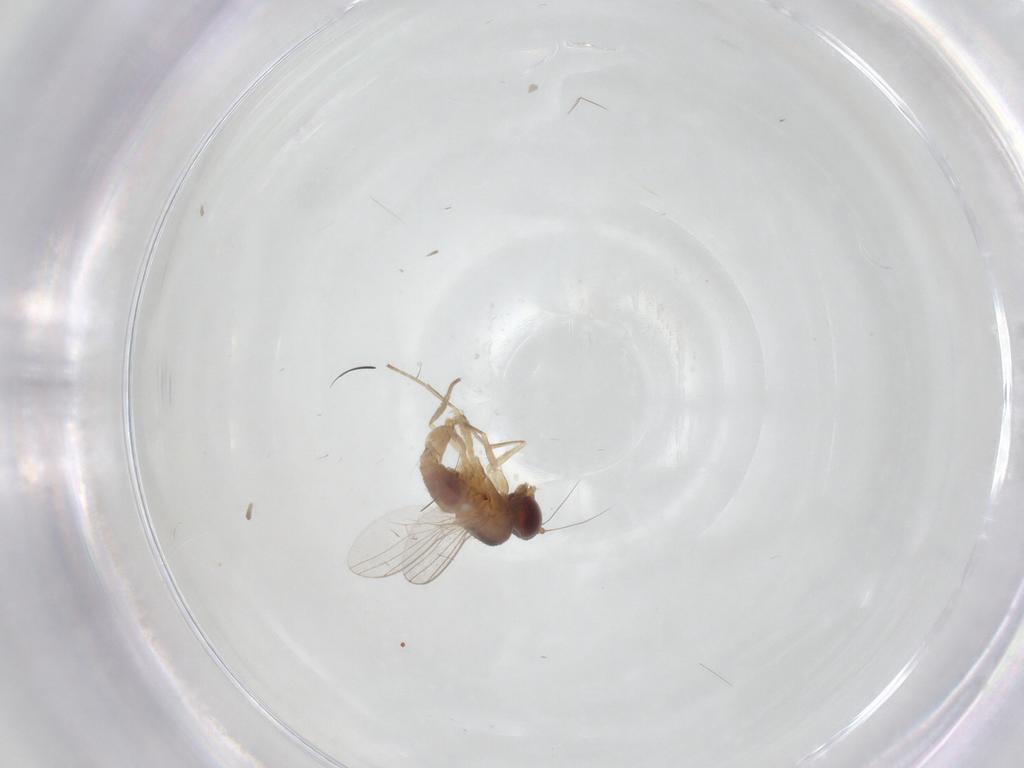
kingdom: Animalia
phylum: Arthropoda
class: Insecta
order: Diptera
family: Dolichopodidae
